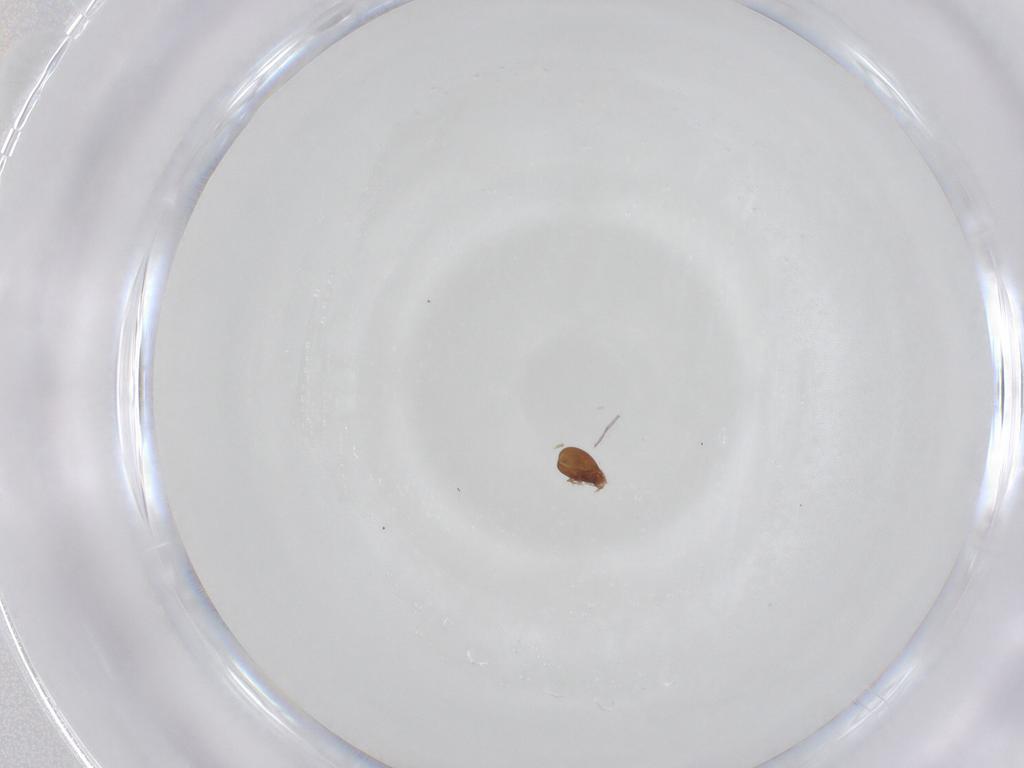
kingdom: Animalia
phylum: Arthropoda
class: Arachnida
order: Sarcoptiformes
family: Scheloribatidae
